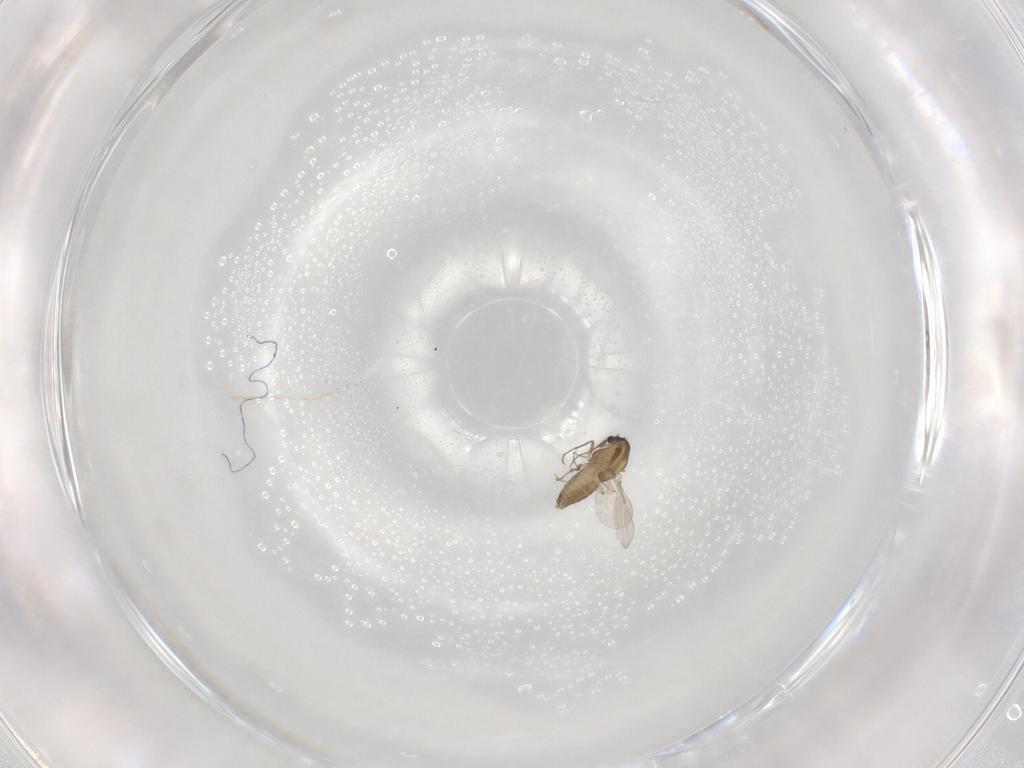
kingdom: Animalia
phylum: Arthropoda
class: Insecta
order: Diptera
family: Chironomidae
